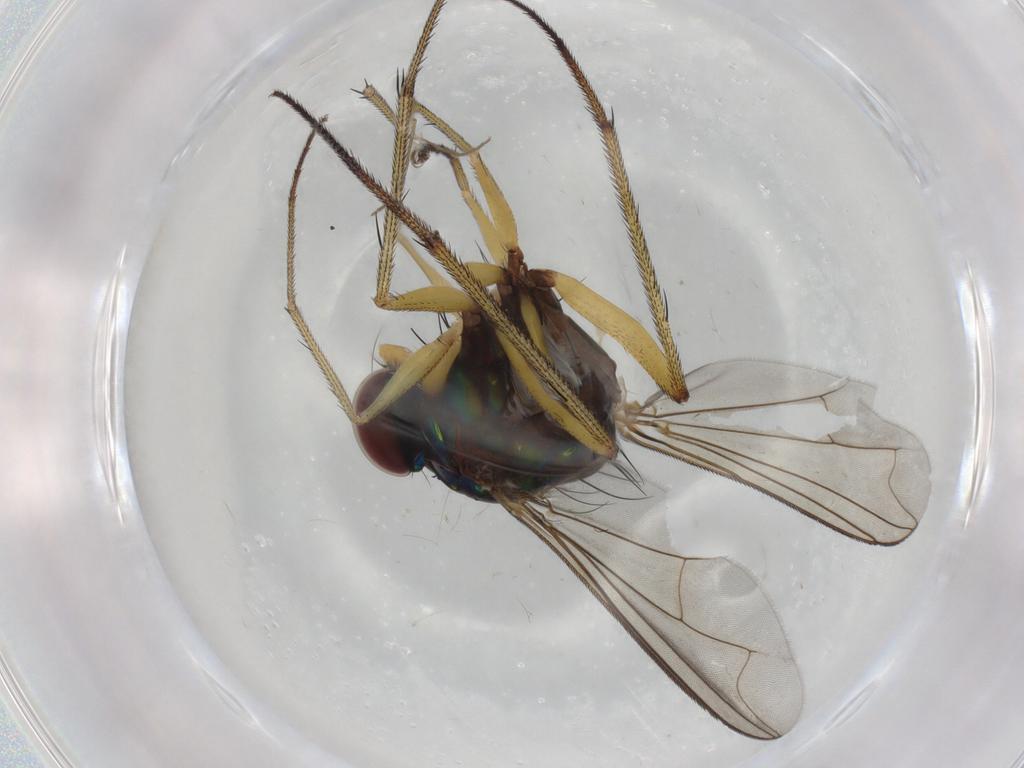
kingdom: Animalia
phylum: Arthropoda
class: Insecta
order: Diptera
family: Dolichopodidae
